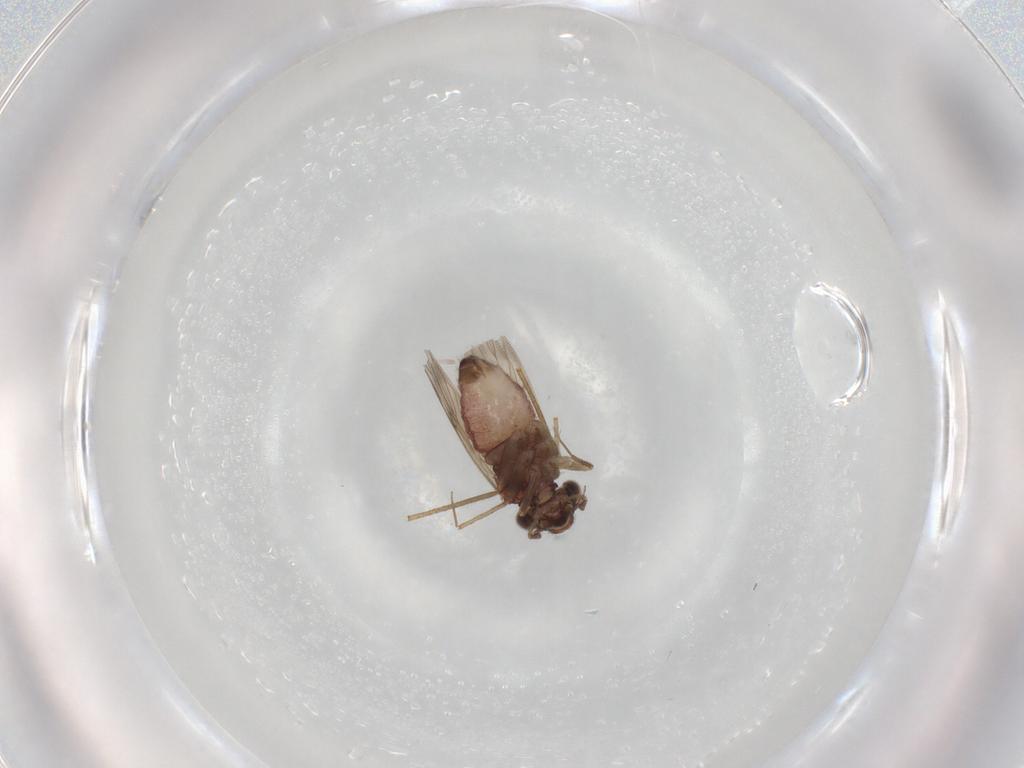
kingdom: Animalia
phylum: Arthropoda
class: Insecta
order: Psocodea
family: Lepidopsocidae
